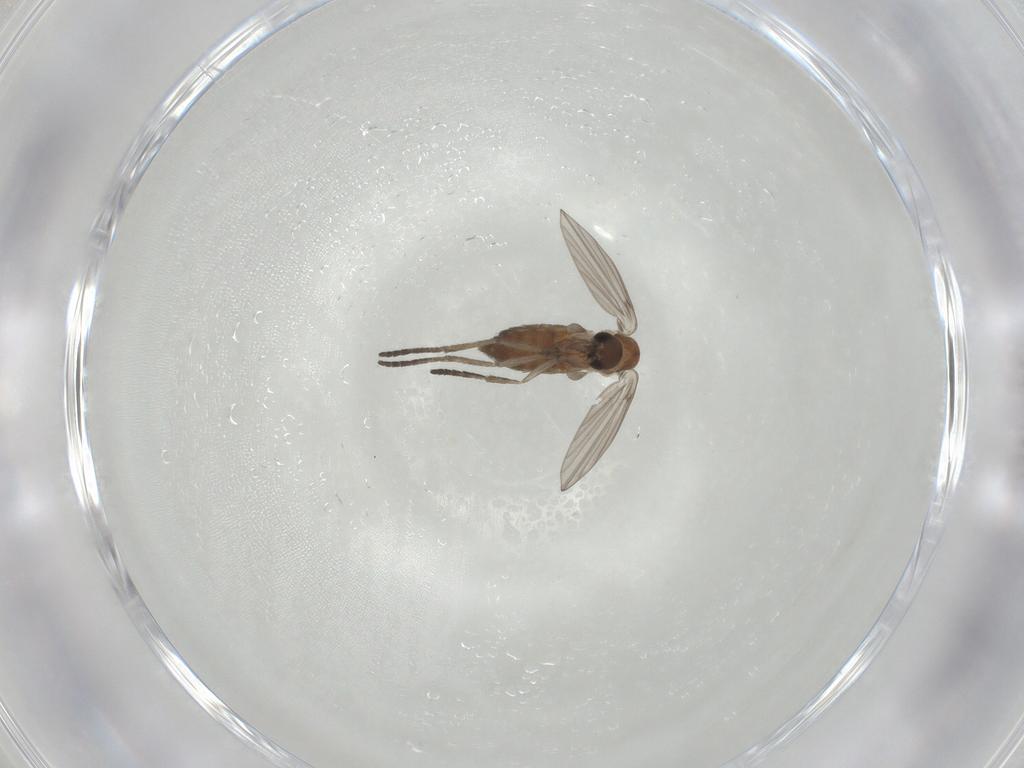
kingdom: Animalia
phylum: Arthropoda
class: Insecta
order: Diptera
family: Psychodidae
